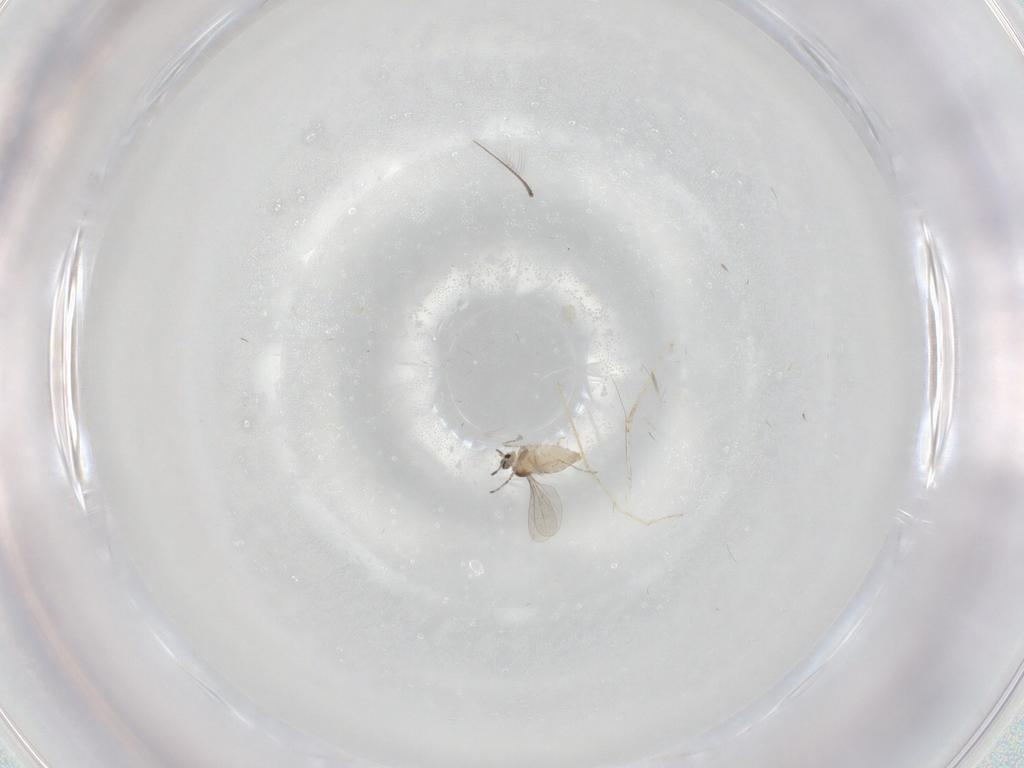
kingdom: Animalia
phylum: Arthropoda
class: Insecta
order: Diptera
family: Cecidomyiidae
